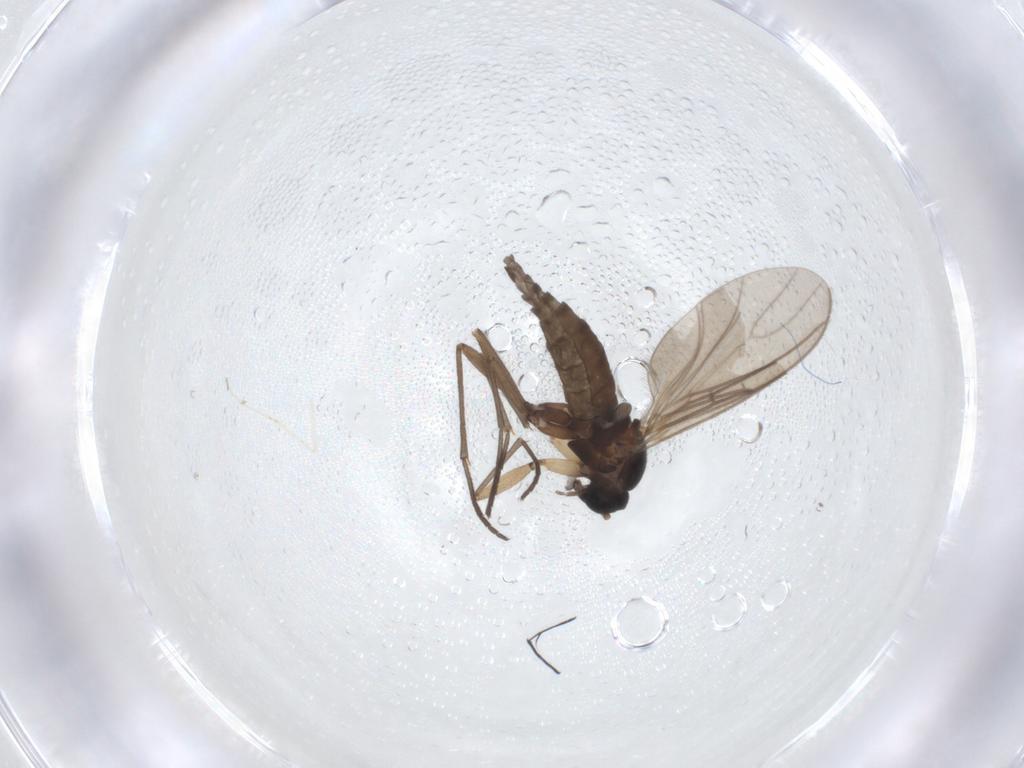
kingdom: Animalia
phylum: Arthropoda
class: Insecta
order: Diptera
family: Sciaridae
